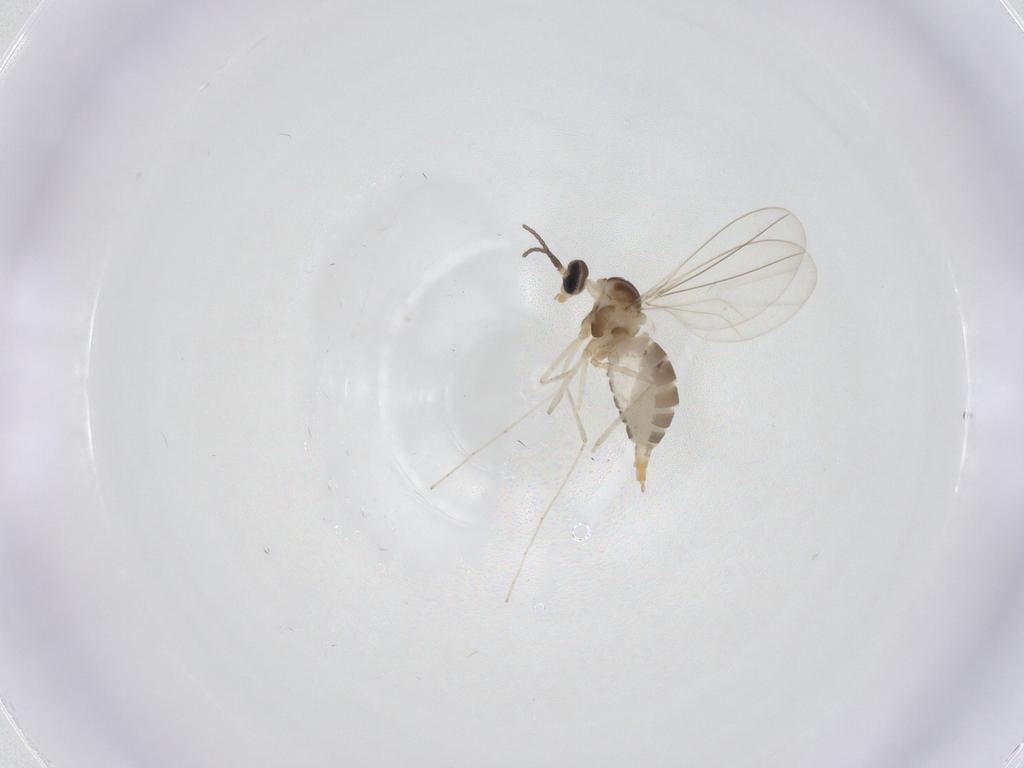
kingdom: Animalia
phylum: Arthropoda
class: Insecta
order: Diptera
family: Cecidomyiidae
